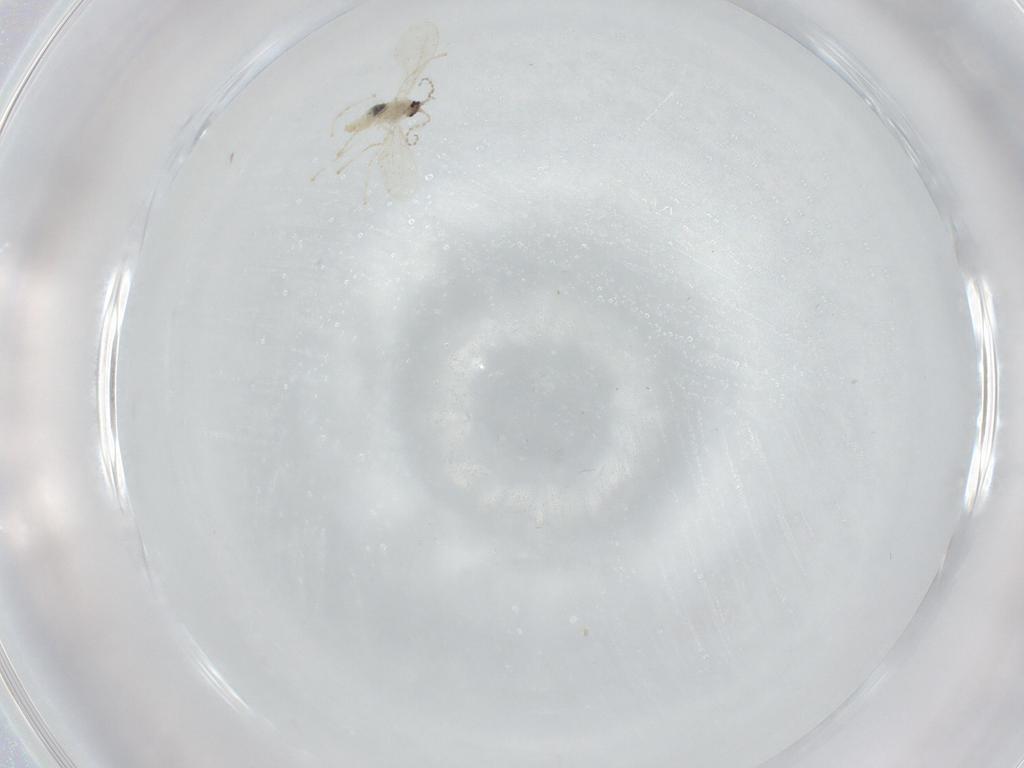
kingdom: Animalia
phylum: Arthropoda
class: Insecta
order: Diptera
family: Cecidomyiidae
